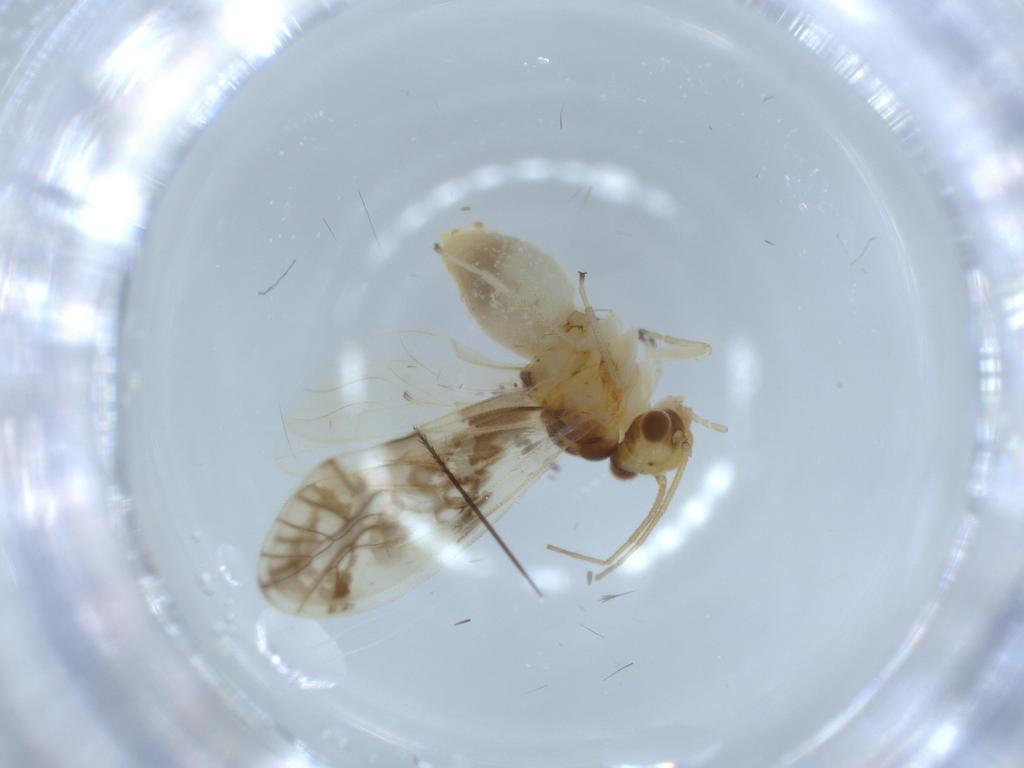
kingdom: Animalia
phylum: Arthropoda
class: Insecta
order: Psocodea
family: Caeciliusidae
